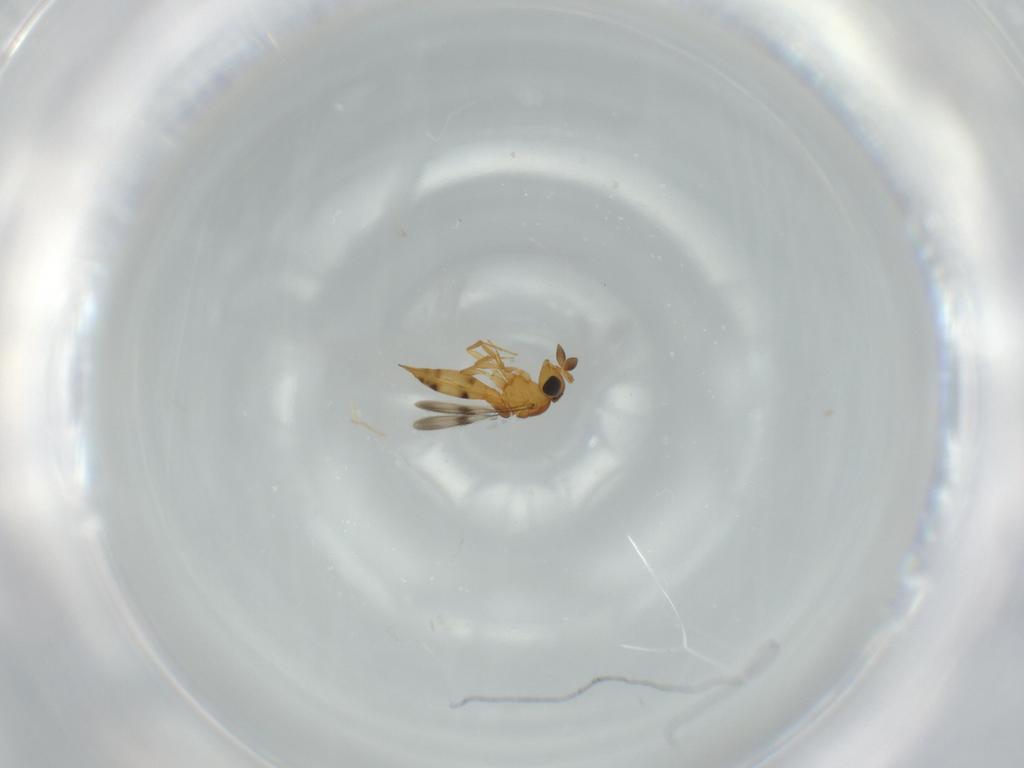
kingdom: Animalia
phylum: Arthropoda
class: Insecta
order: Hymenoptera
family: Scelionidae
